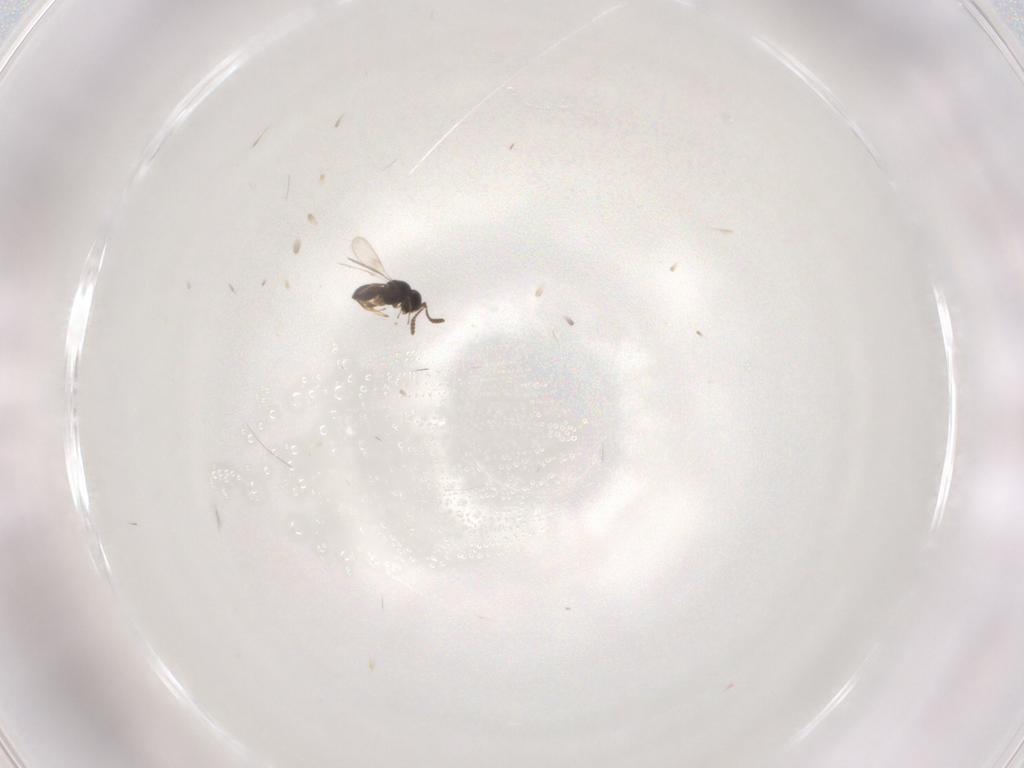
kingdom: Animalia
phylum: Arthropoda
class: Insecta
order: Hymenoptera
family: Scelionidae
